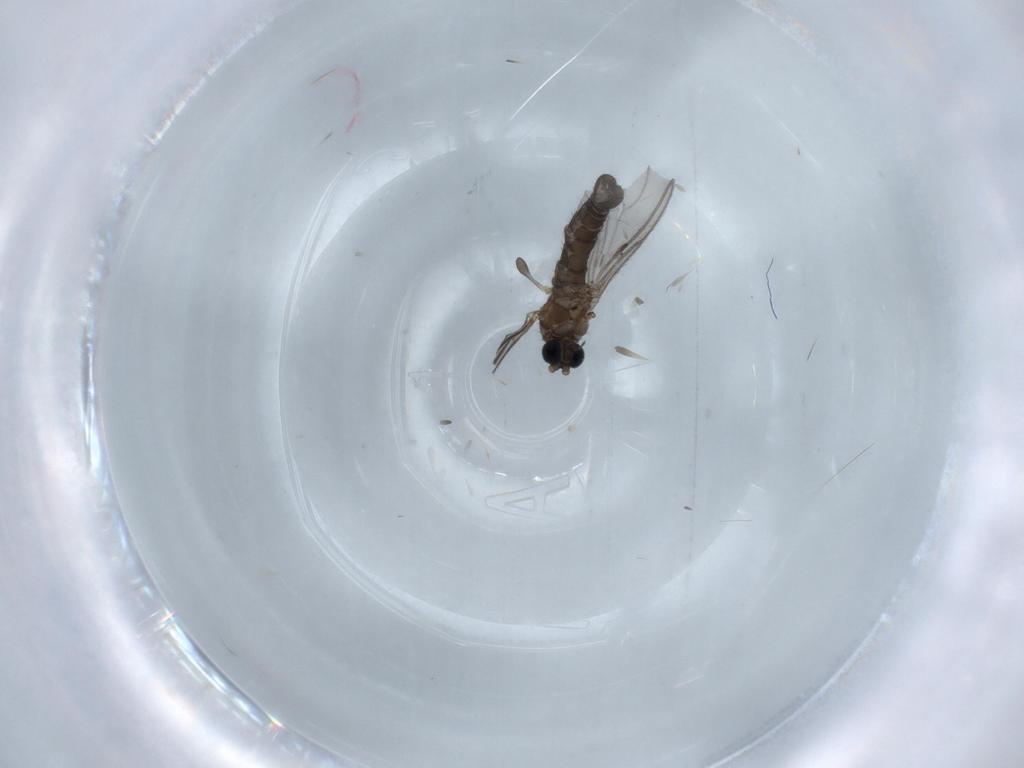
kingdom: Animalia
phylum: Arthropoda
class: Insecta
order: Diptera
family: Sciaridae
